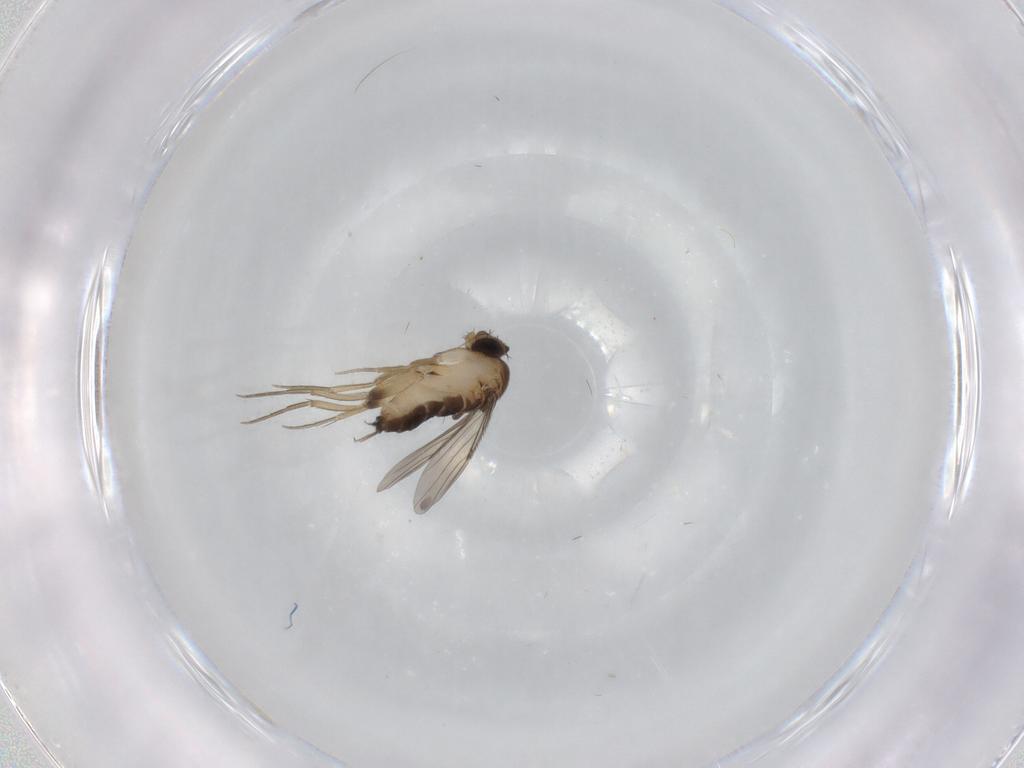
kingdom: Animalia
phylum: Arthropoda
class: Insecta
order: Diptera
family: Phoridae
